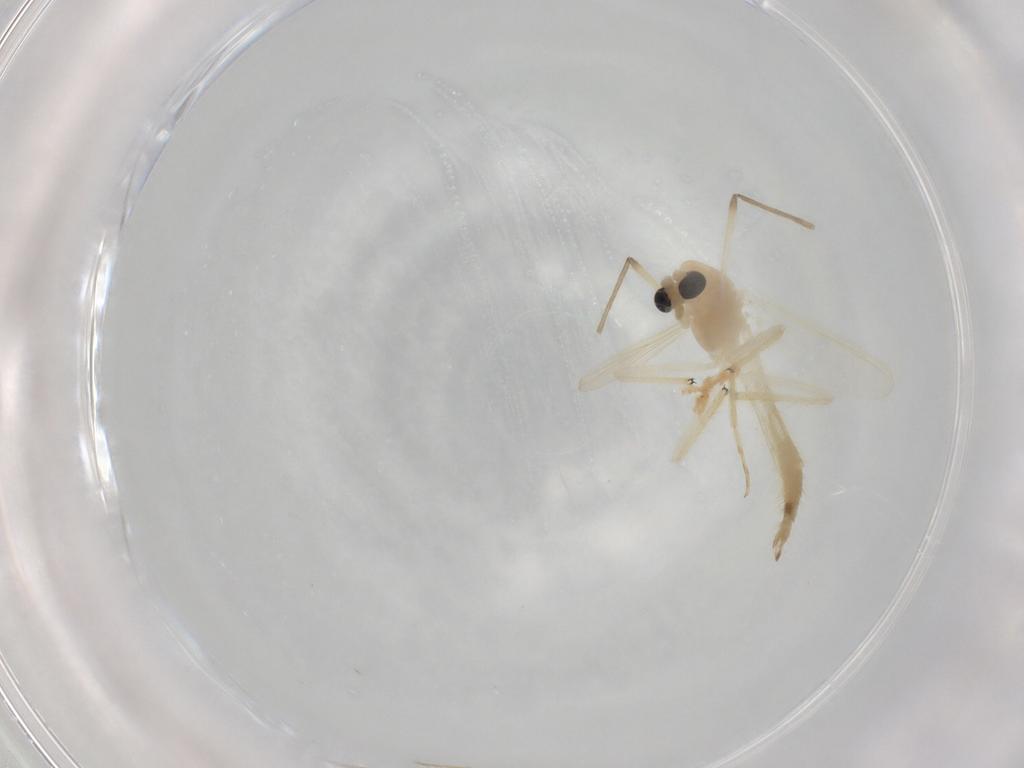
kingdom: Animalia
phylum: Arthropoda
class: Insecta
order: Diptera
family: Chironomidae
